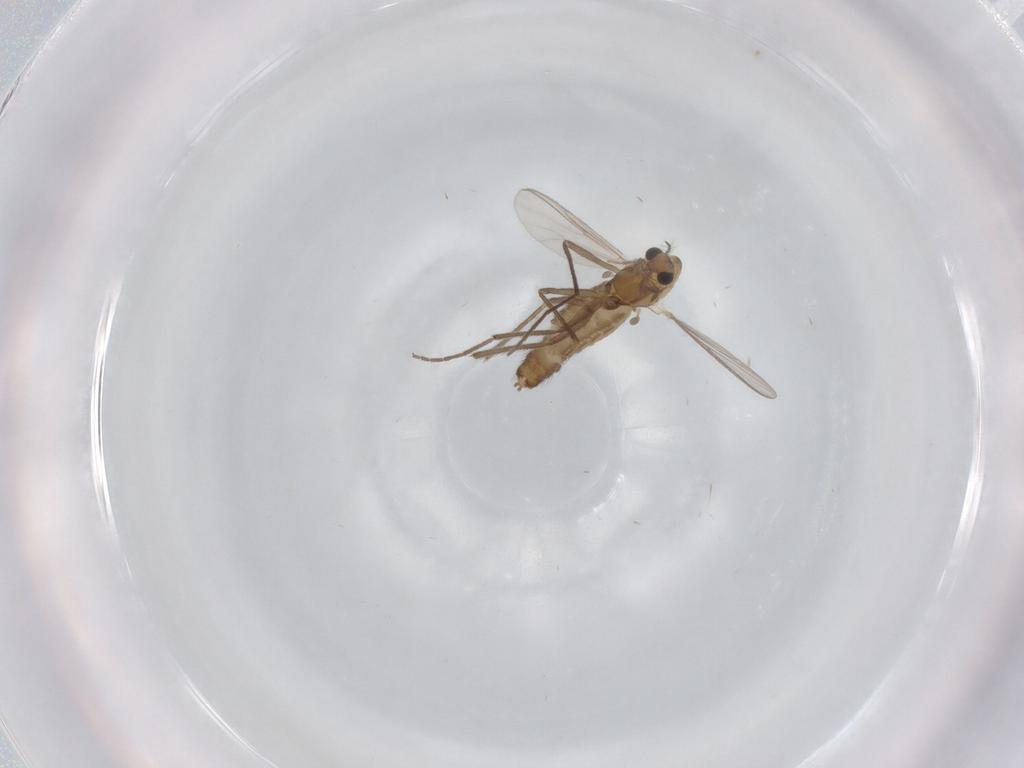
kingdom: Animalia
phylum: Arthropoda
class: Insecta
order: Diptera
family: Chironomidae
